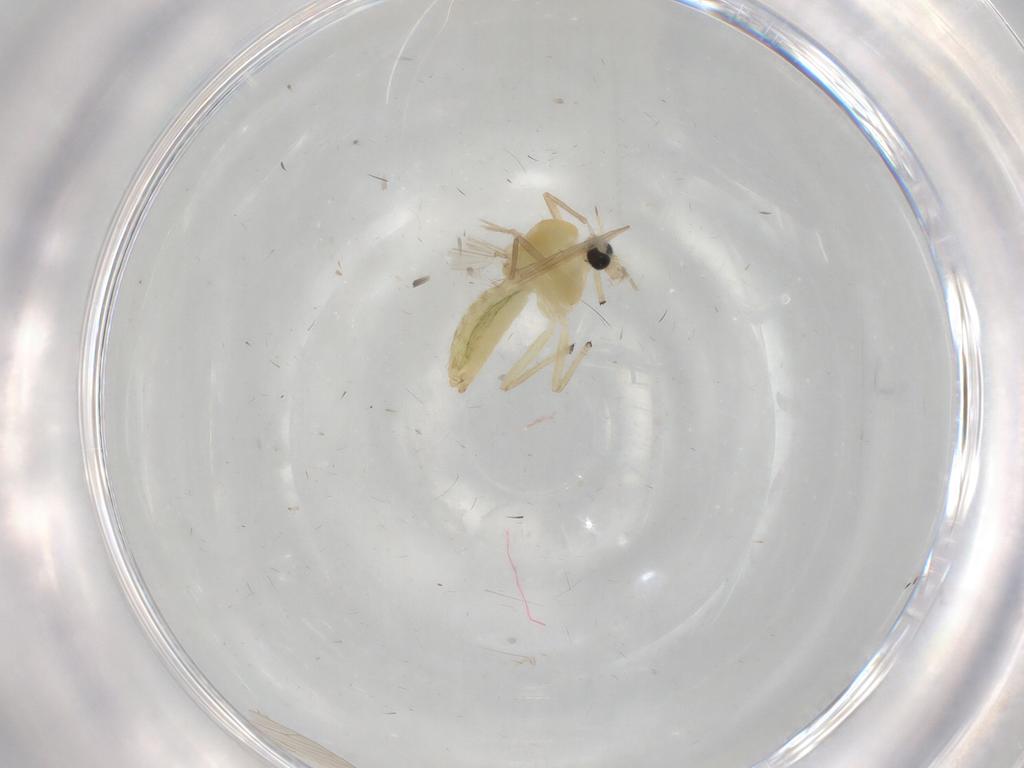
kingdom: Animalia
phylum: Arthropoda
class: Insecta
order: Diptera
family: Chironomidae
